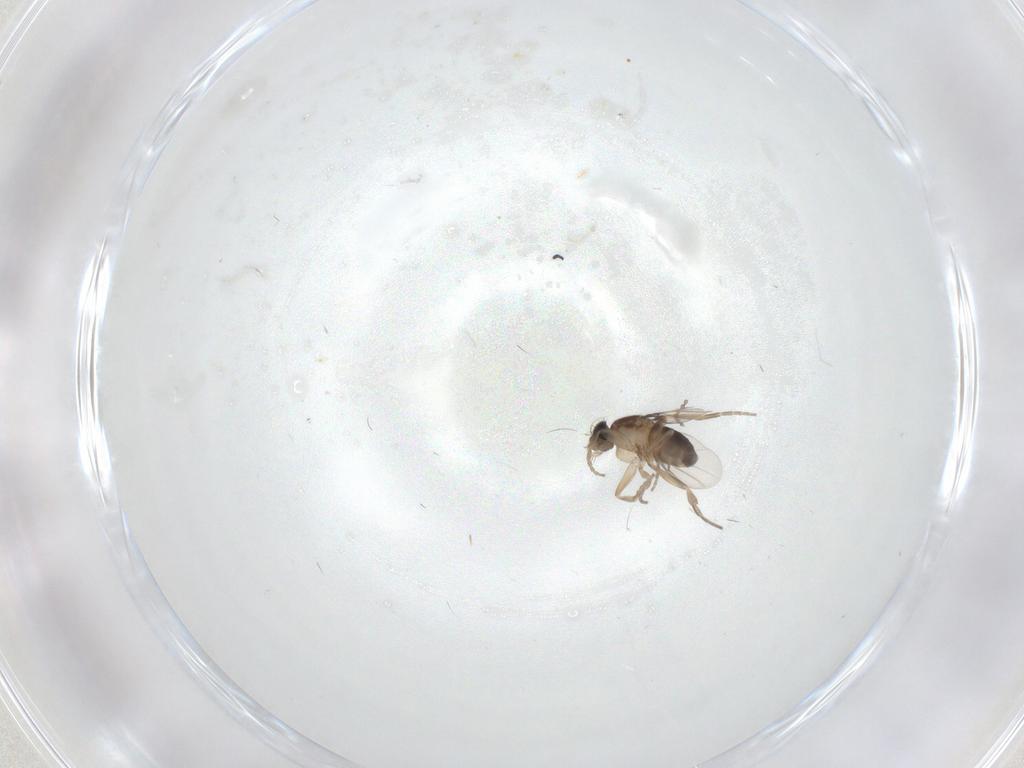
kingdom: Animalia
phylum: Arthropoda
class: Insecta
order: Diptera
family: Phoridae
